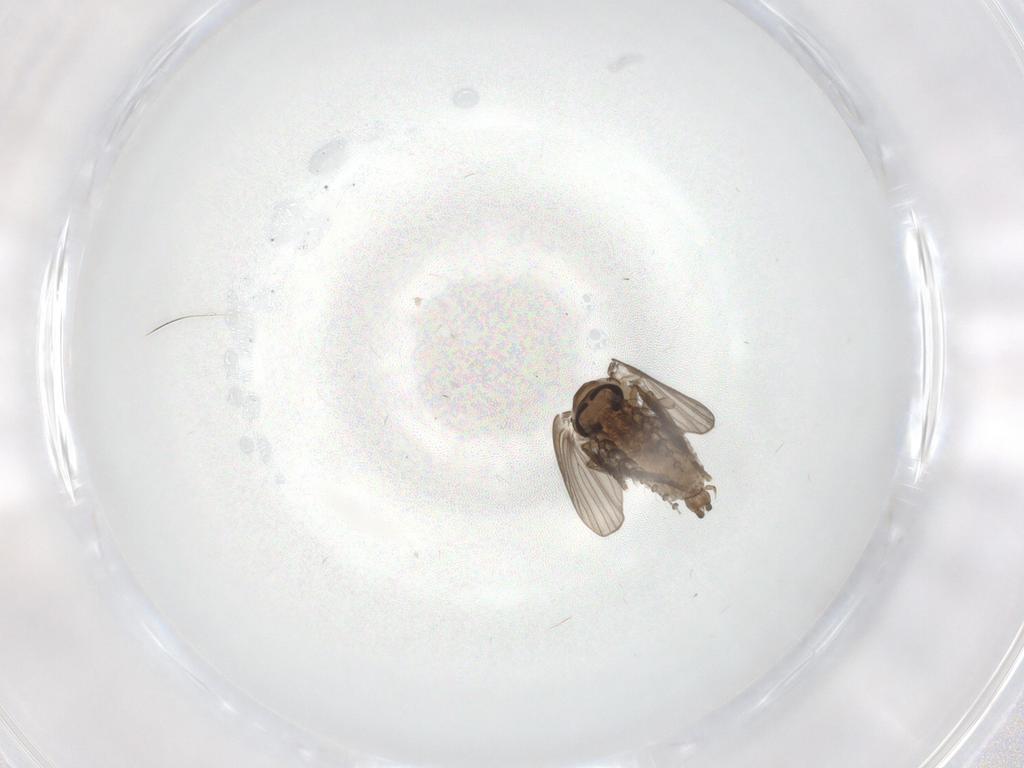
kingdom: Animalia
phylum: Arthropoda
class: Insecta
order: Diptera
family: Psychodidae
